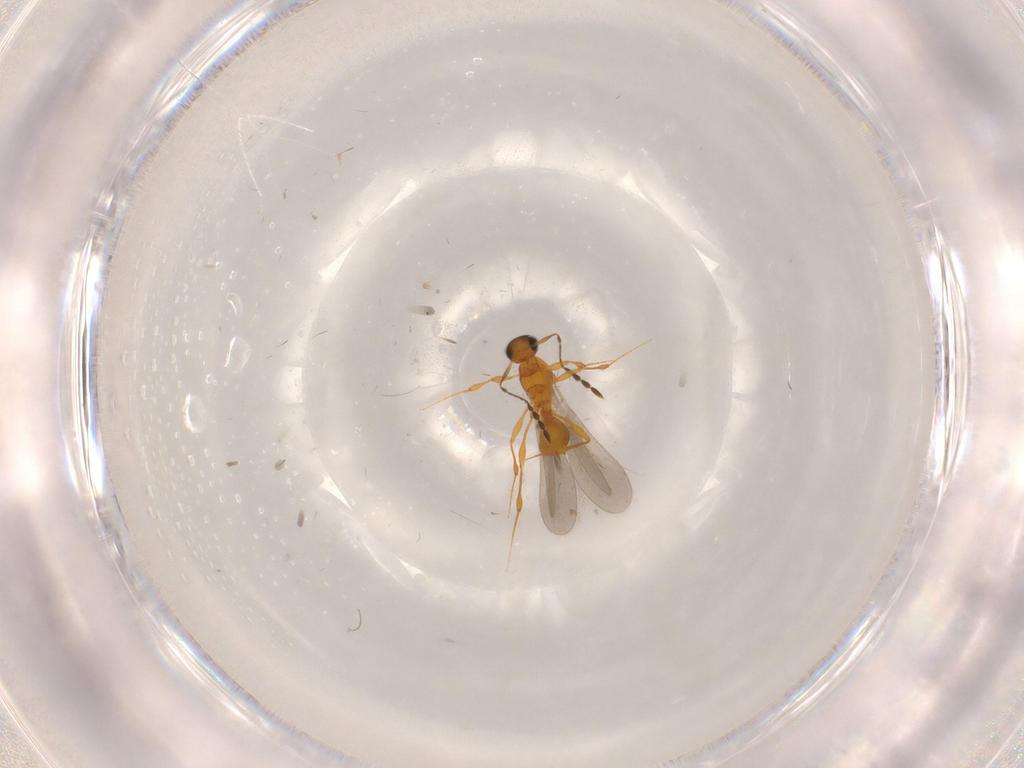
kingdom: Animalia
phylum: Arthropoda
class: Insecta
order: Hymenoptera
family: Platygastridae
